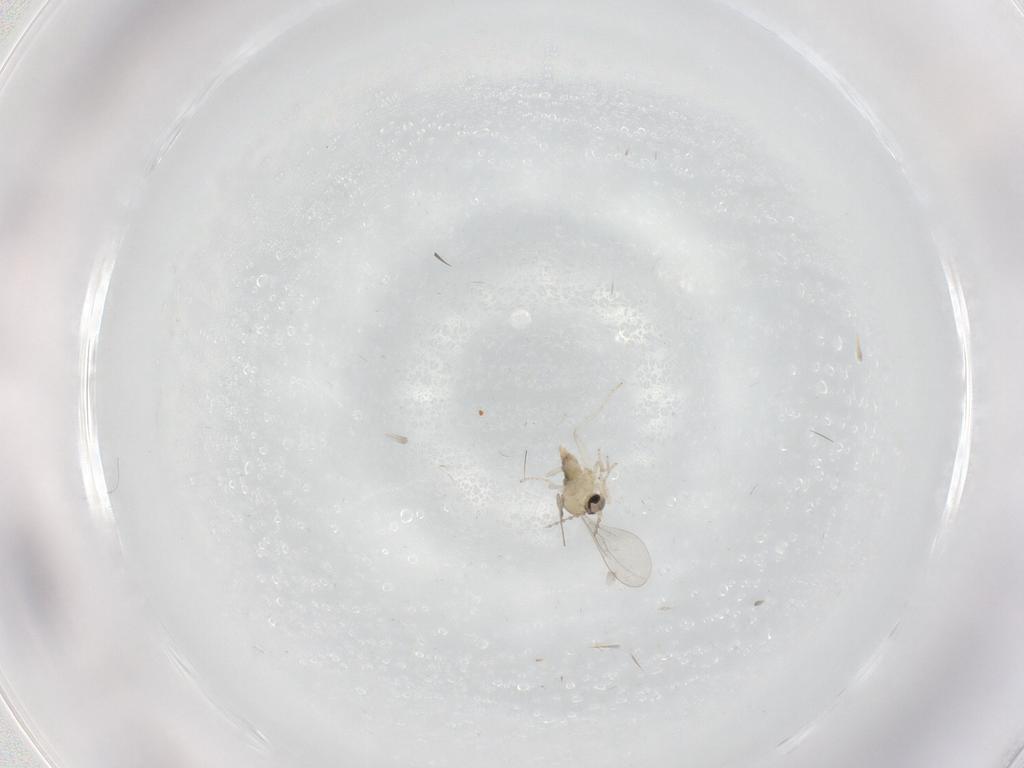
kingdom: Animalia
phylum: Arthropoda
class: Insecta
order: Diptera
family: Cecidomyiidae
